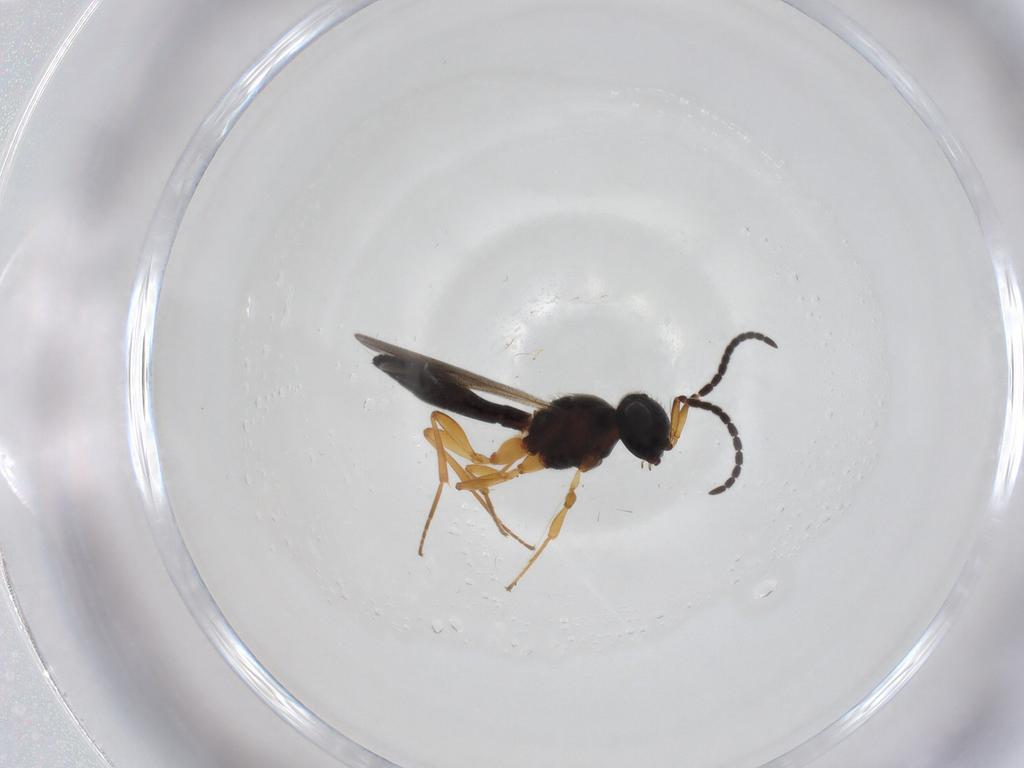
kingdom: Animalia
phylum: Arthropoda
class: Insecta
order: Hymenoptera
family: Scelionidae
